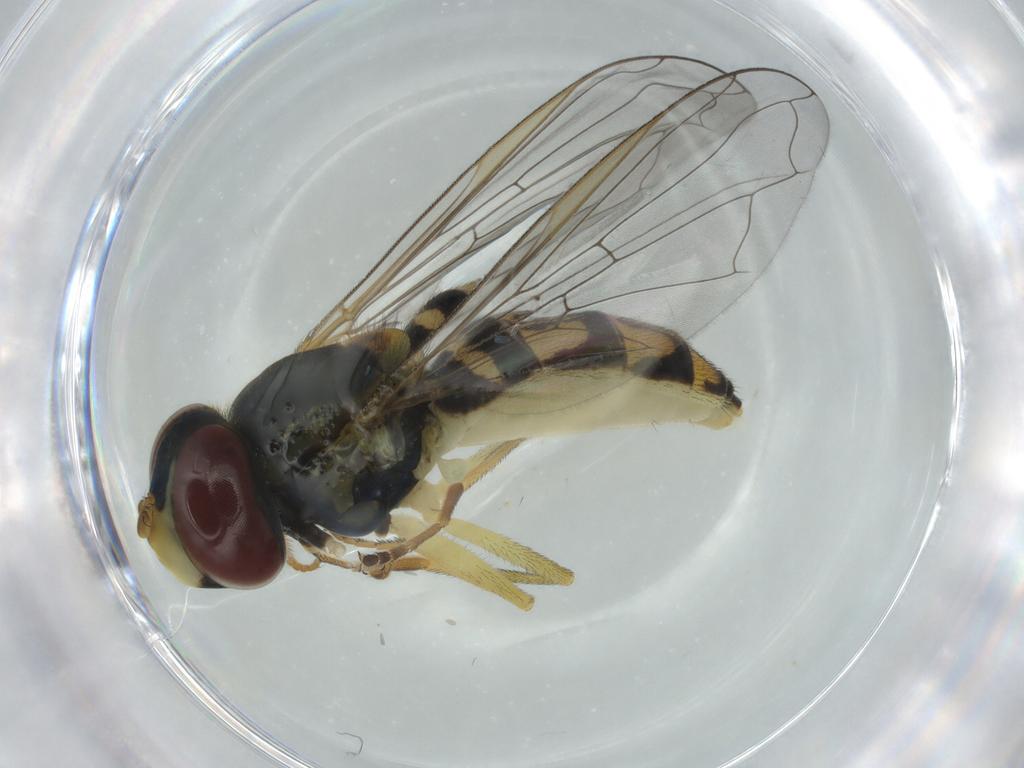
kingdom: Animalia
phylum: Arthropoda
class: Insecta
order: Diptera
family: Syrphidae
